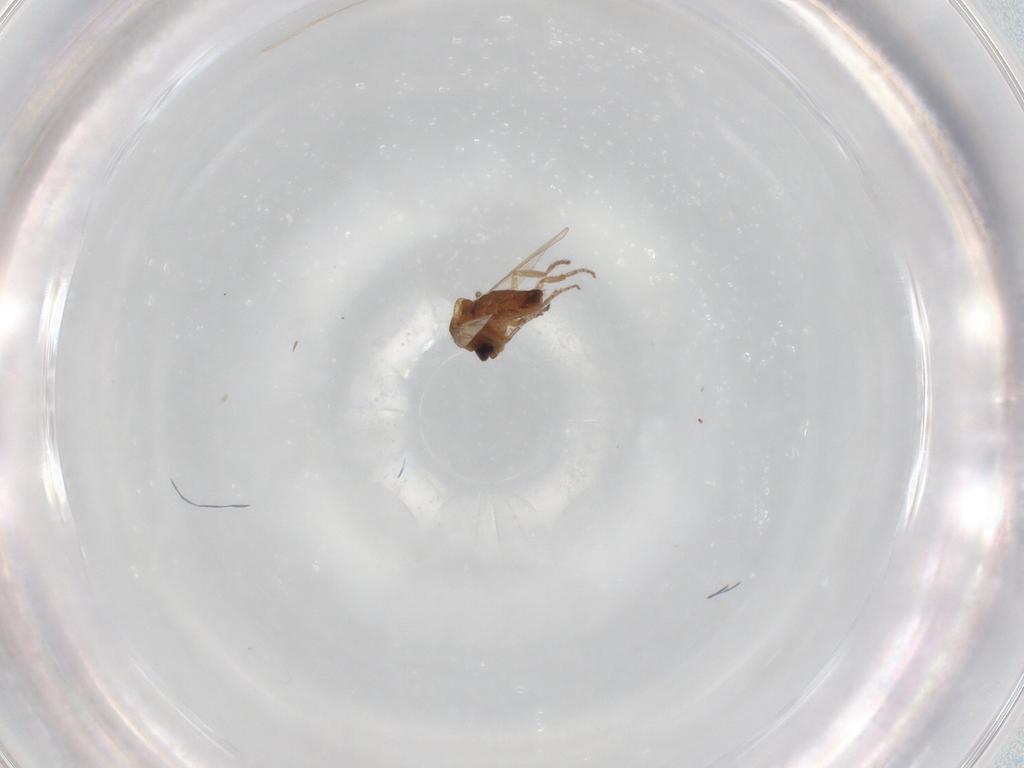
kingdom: Animalia
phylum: Arthropoda
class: Insecta
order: Diptera
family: Ceratopogonidae
